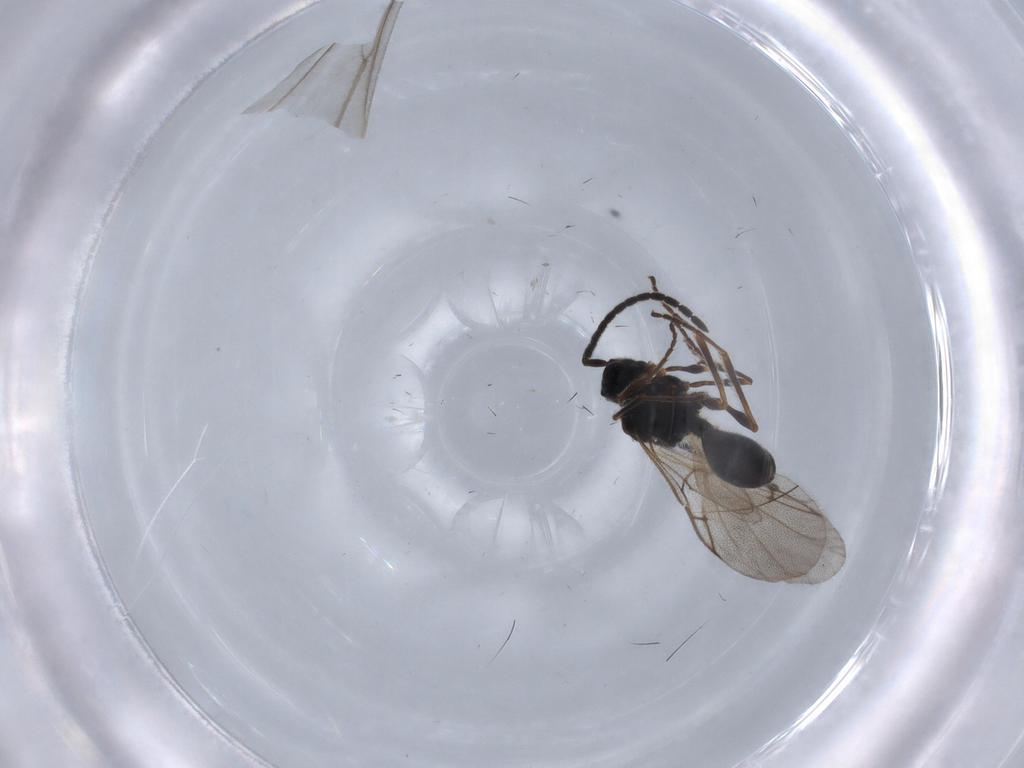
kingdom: Animalia
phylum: Arthropoda
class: Insecta
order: Hymenoptera
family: Diapriidae
